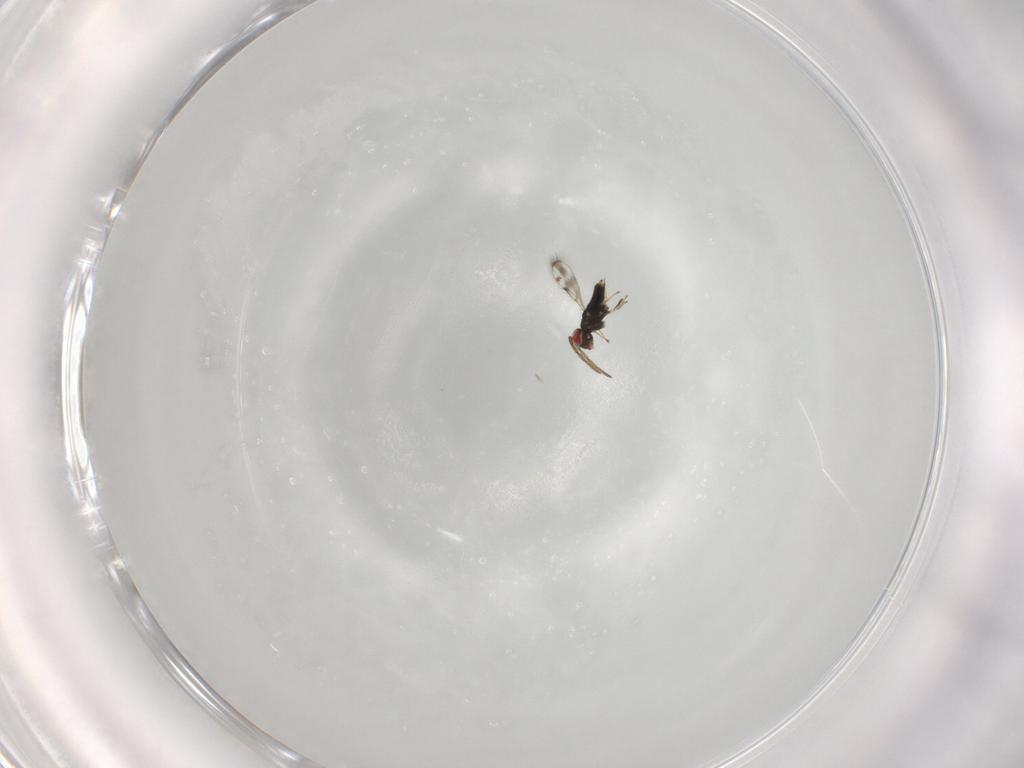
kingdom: Animalia
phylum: Arthropoda
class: Insecta
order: Hymenoptera
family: Azotidae
